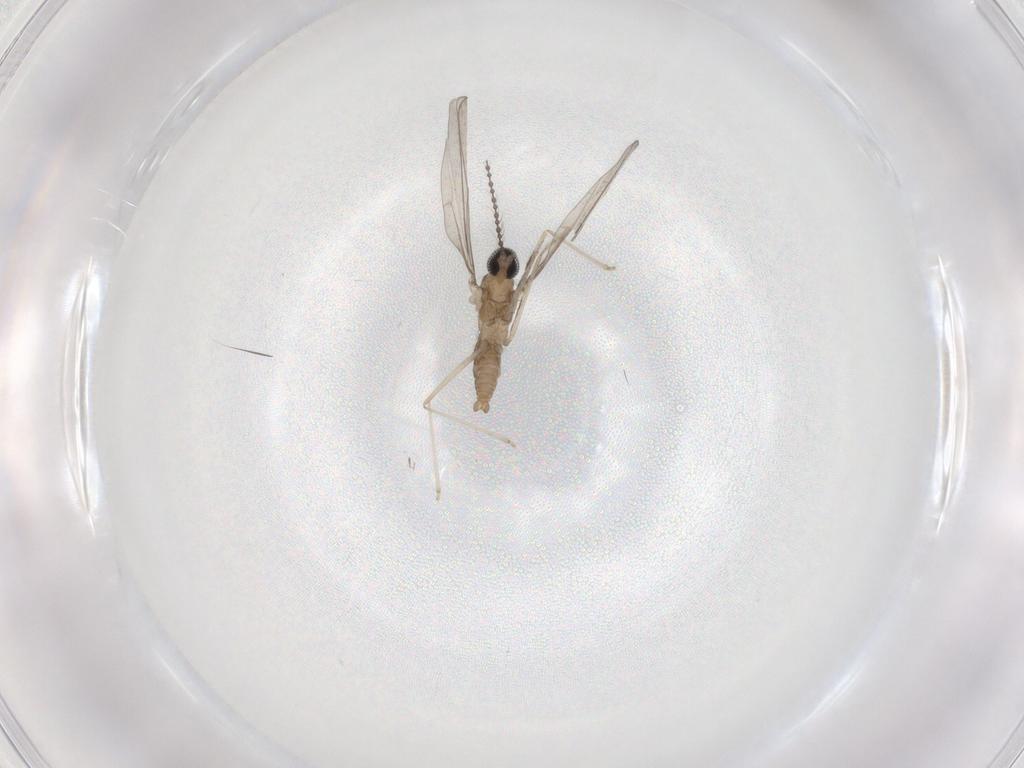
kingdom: Animalia
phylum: Arthropoda
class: Insecta
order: Diptera
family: Cecidomyiidae
